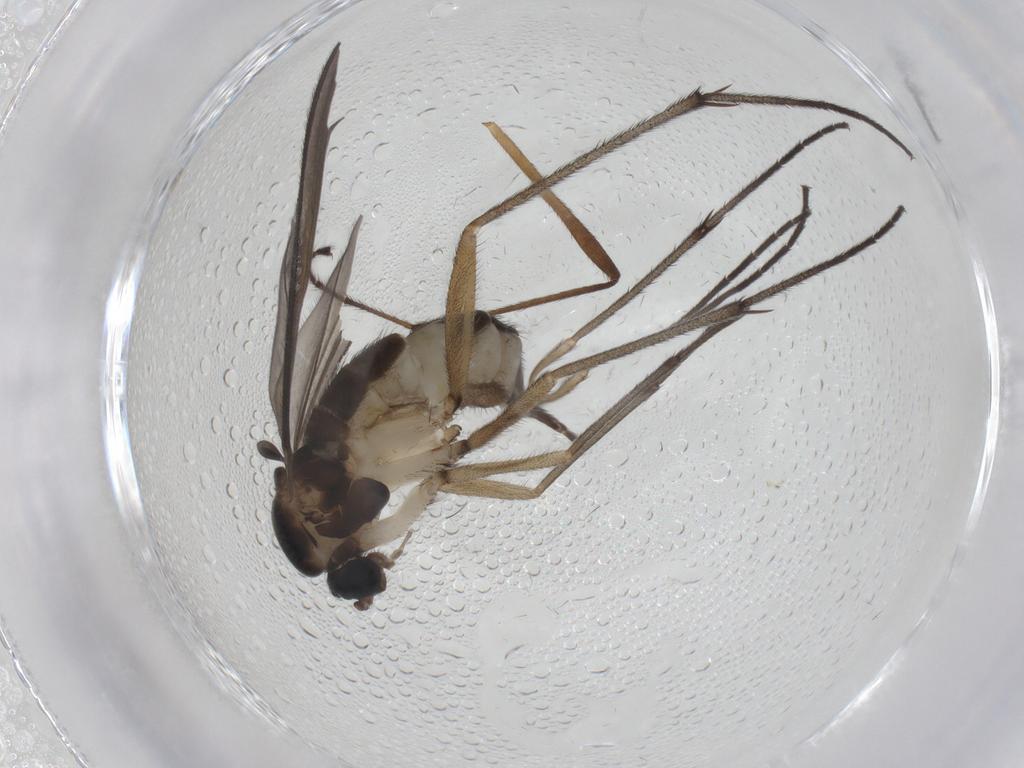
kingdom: Animalia
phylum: Arthropoda
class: Insecta
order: Diptera
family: Sciaridae
